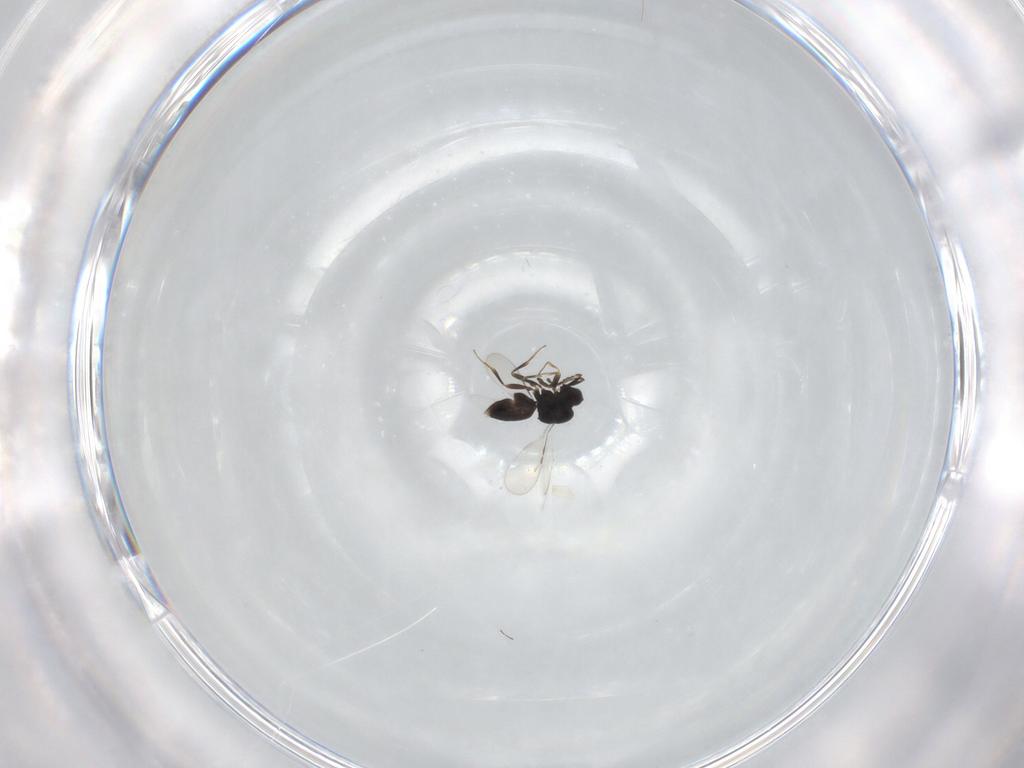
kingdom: Animalia
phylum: Arthropoda
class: Insecta
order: Hymenoptera
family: Ceraphronidae
